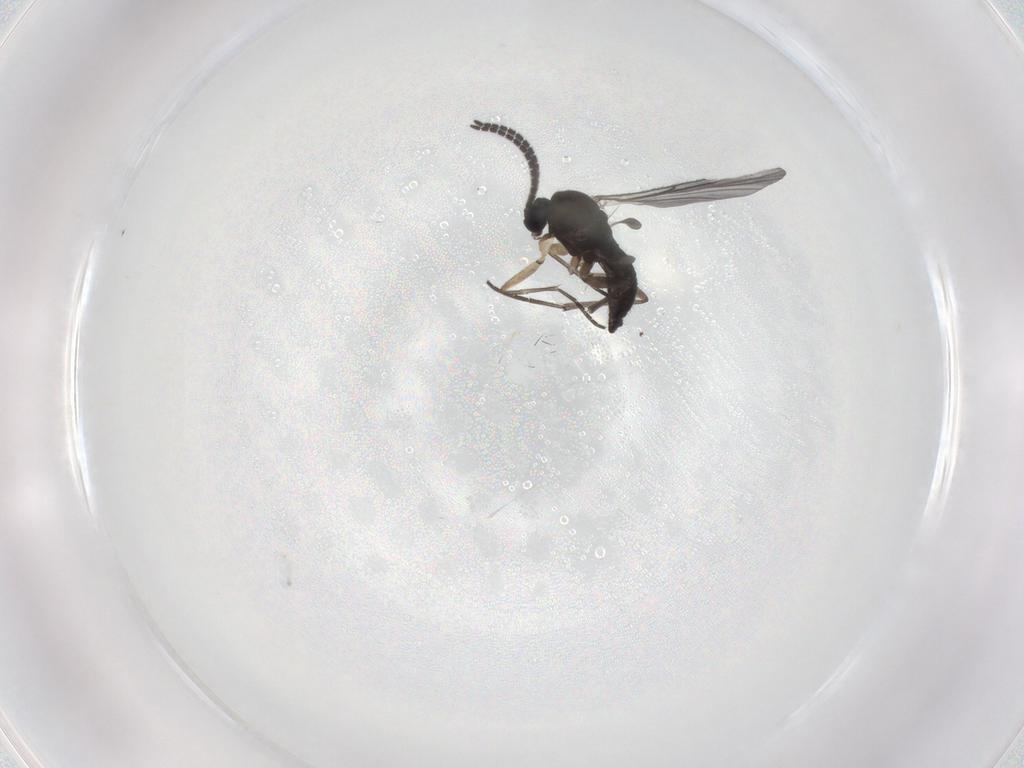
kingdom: Animalia
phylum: Arthropoda
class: Insecta
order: Diptera
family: Sciaridae
